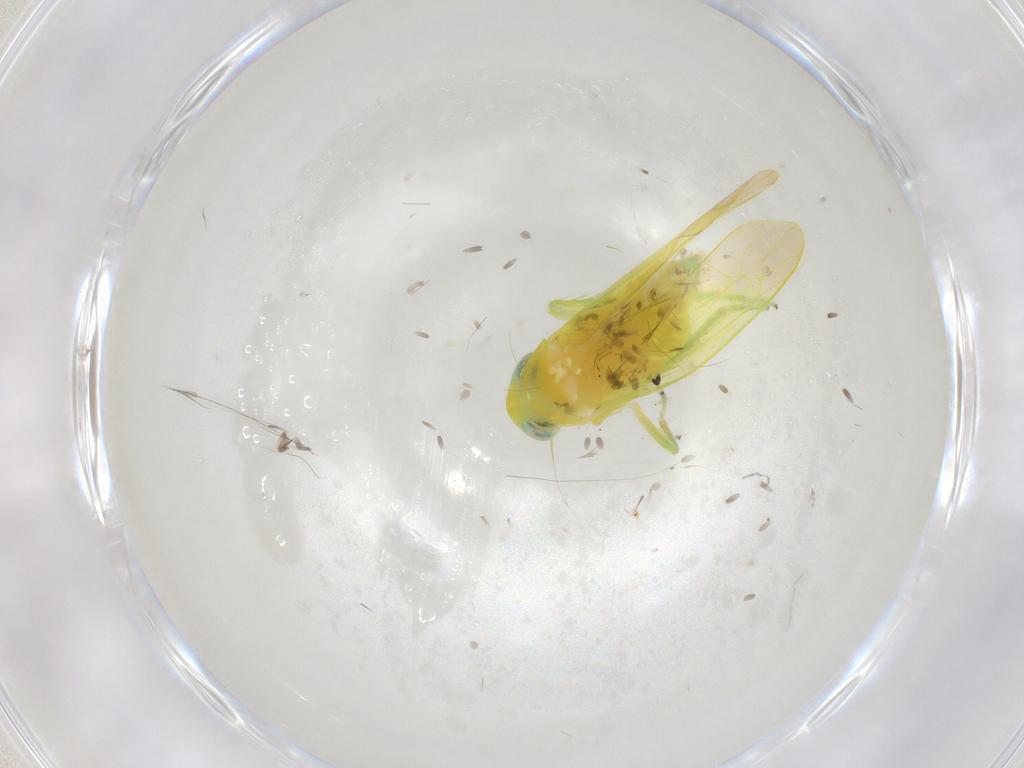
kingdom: Animalia
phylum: Arthropoda
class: Insecta
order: Hemiptera
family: Cicadellidae
